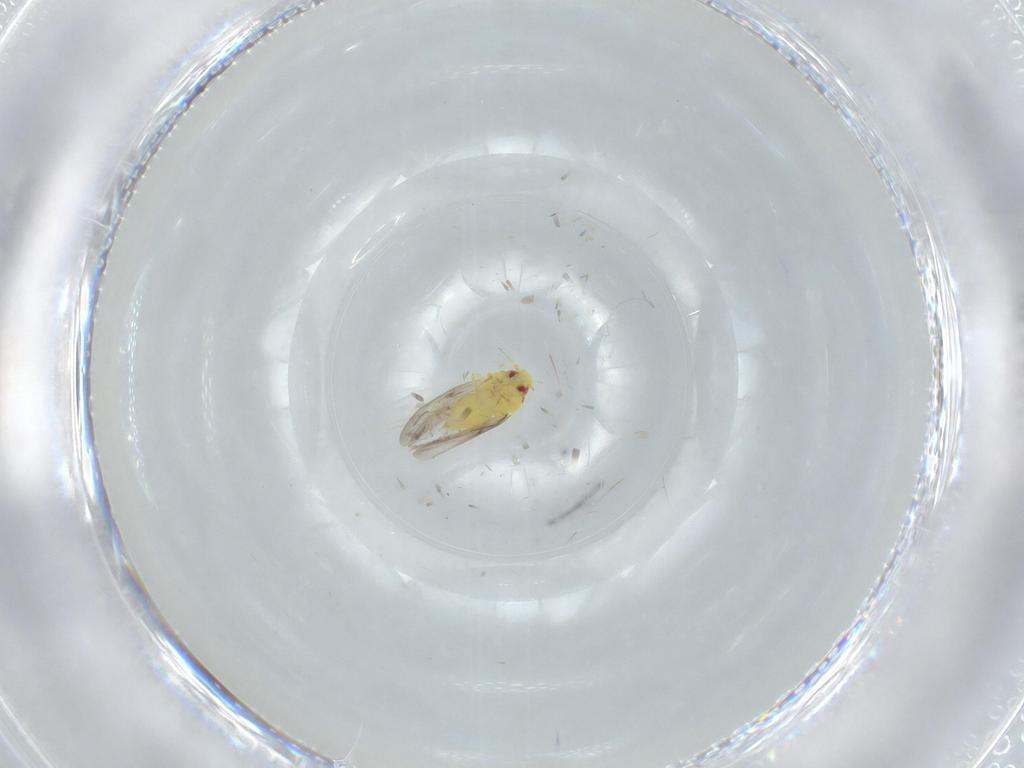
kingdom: Animalia
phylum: Arthropoda
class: Insecta
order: Hemiptera
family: Aleyrodidae
